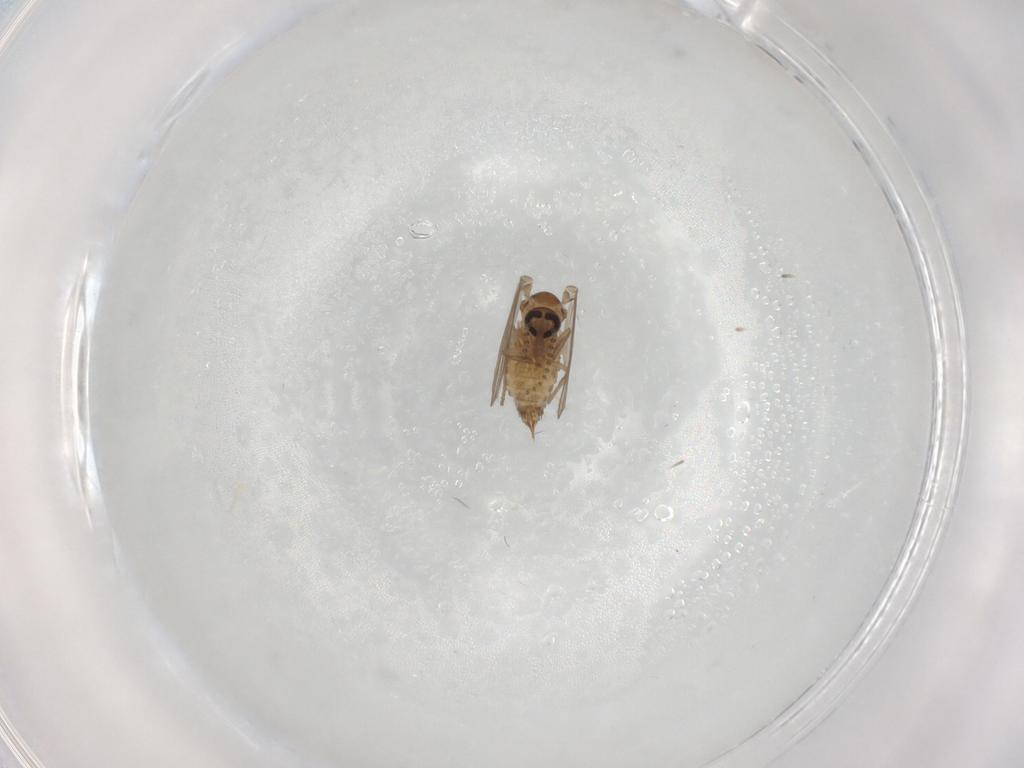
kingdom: Animalia
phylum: Arthropoda
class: Insecta
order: Diptera
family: Psychodidae
